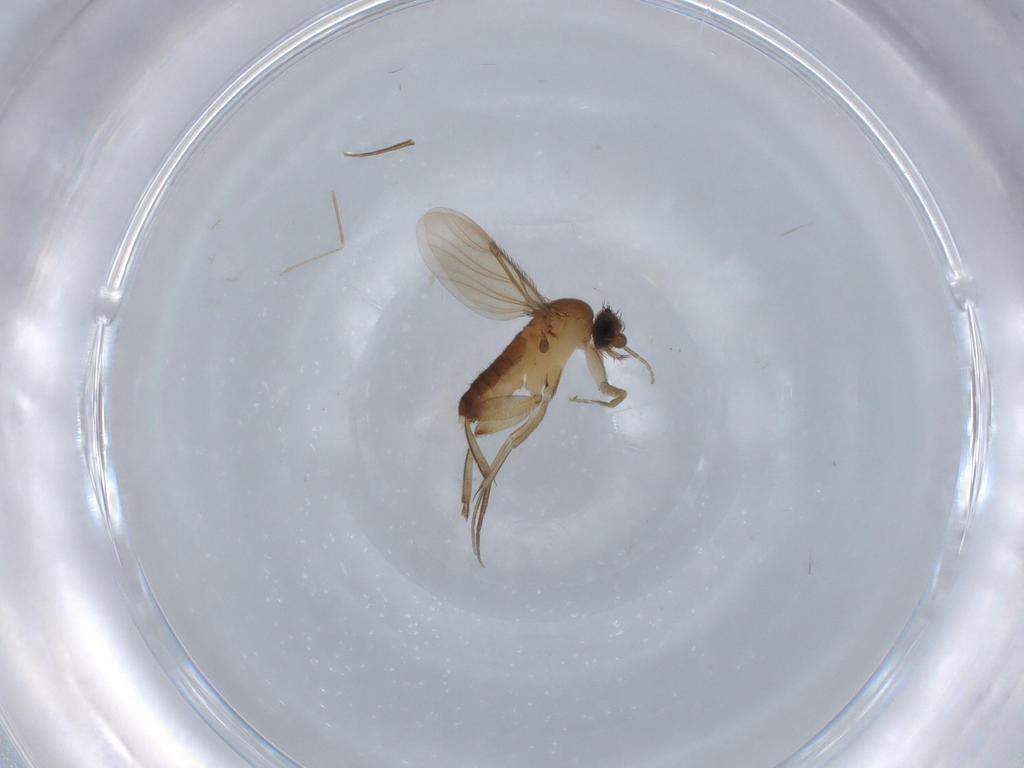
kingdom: Animalia
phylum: Arthropoda
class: Insecta
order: Diptera
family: Phoridae
